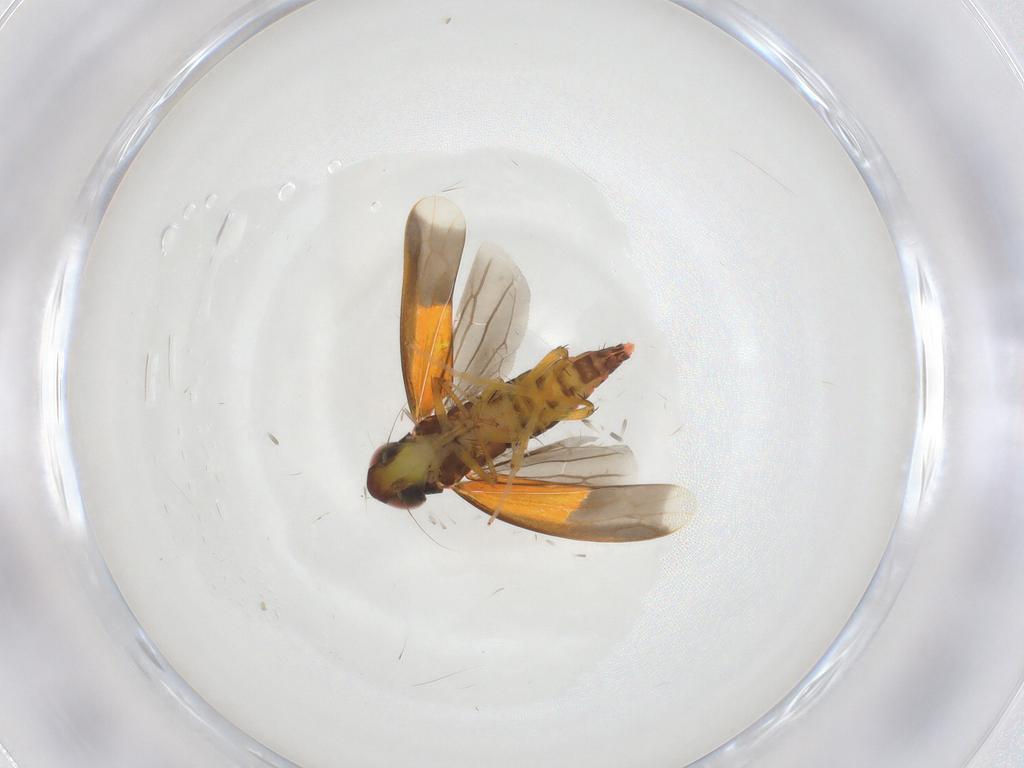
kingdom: Animalia
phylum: Arthropoda
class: Insecta
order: Hemiptera
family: Cicadellidae
